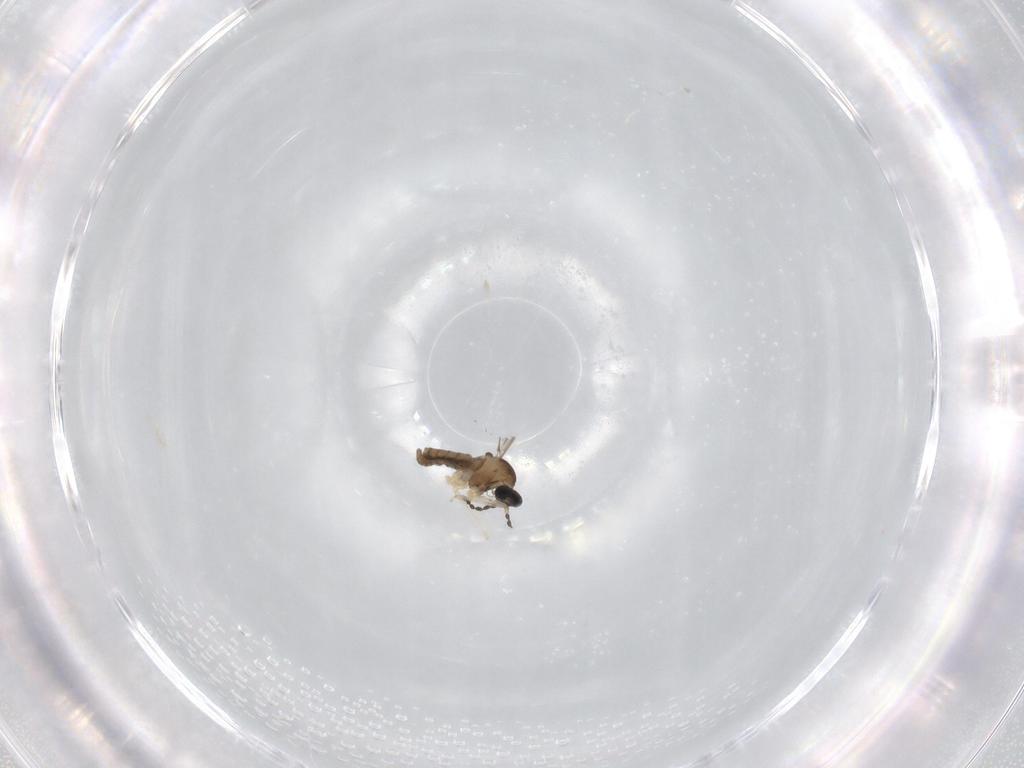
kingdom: Animalia
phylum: Arthropoda
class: Insecta
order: Diptera
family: Cecidomyiidae
